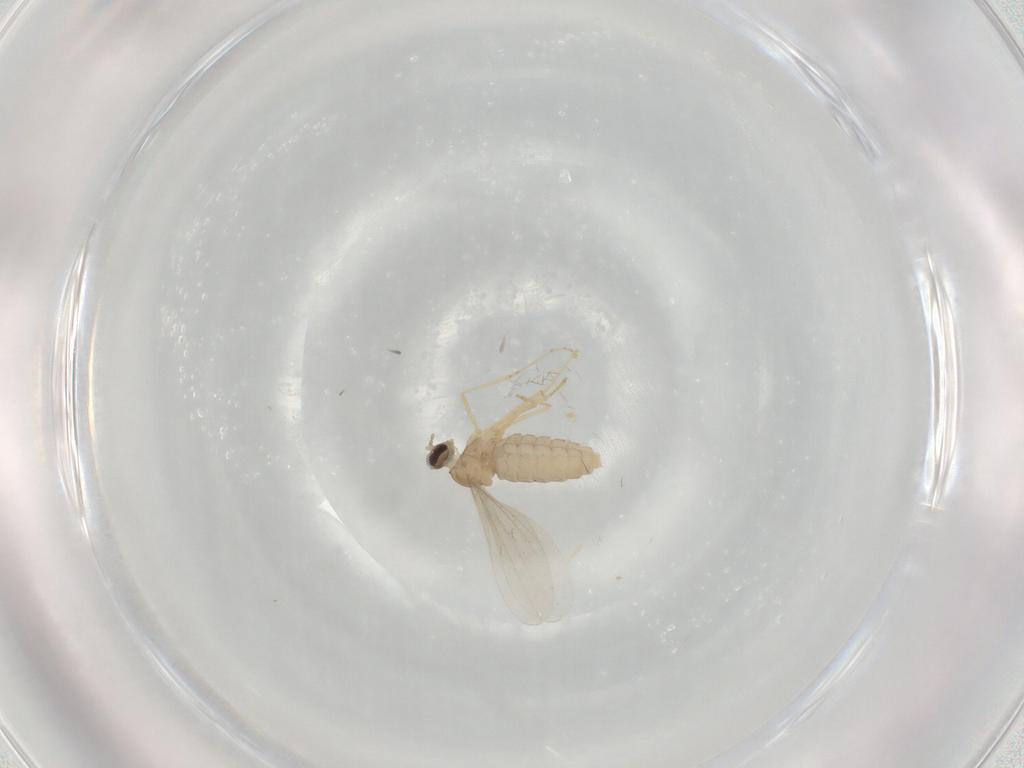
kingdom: Animalia
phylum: Arthropoda
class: Insecta
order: Diptera
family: Cecidomyiidae
